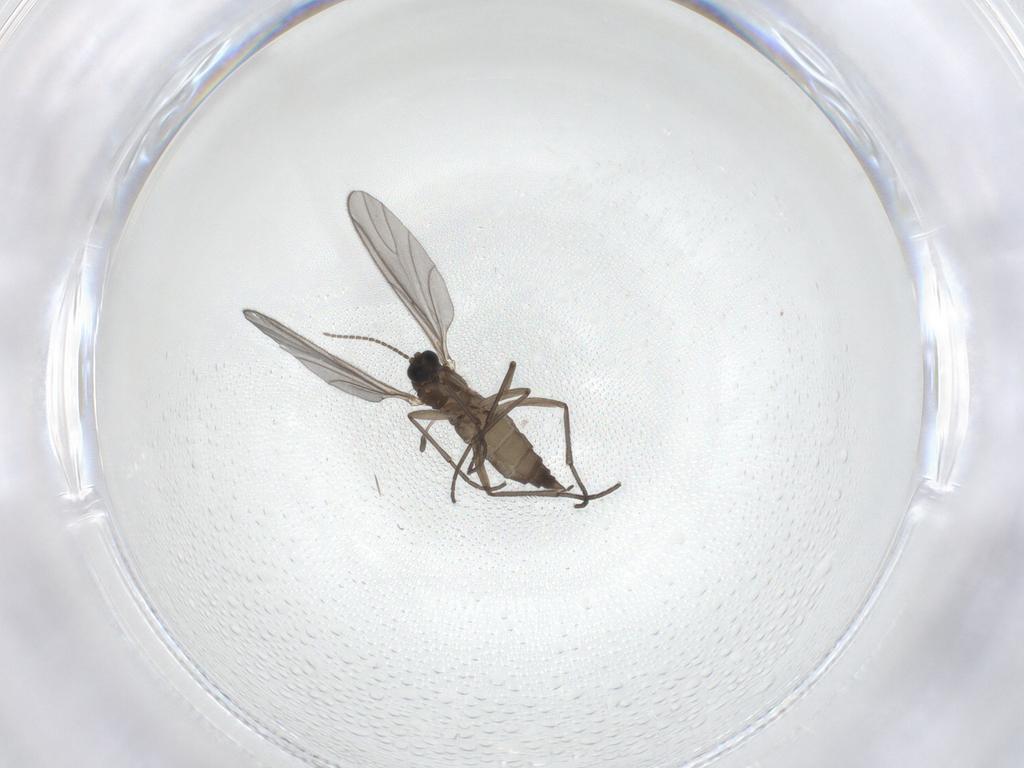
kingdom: Animalia
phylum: Arthropoda
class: Insecta
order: Diptera
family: Sciaridae
